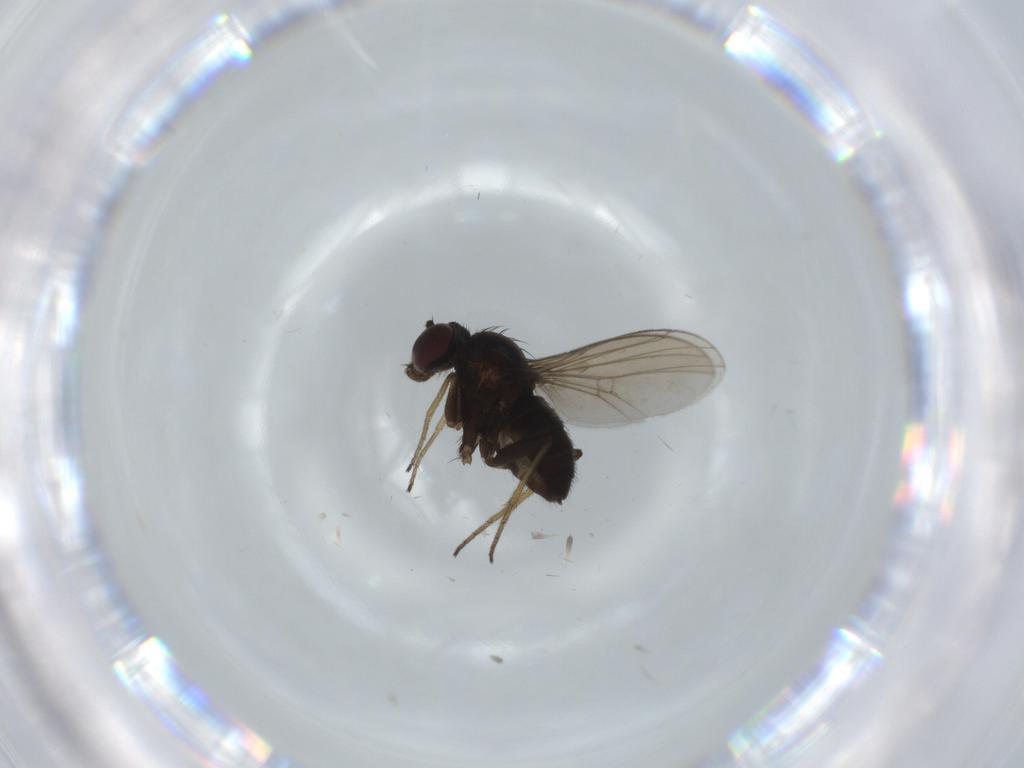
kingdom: Animalia
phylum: Arthropoda
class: Insecta
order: Diptera
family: Dolichopodidae
